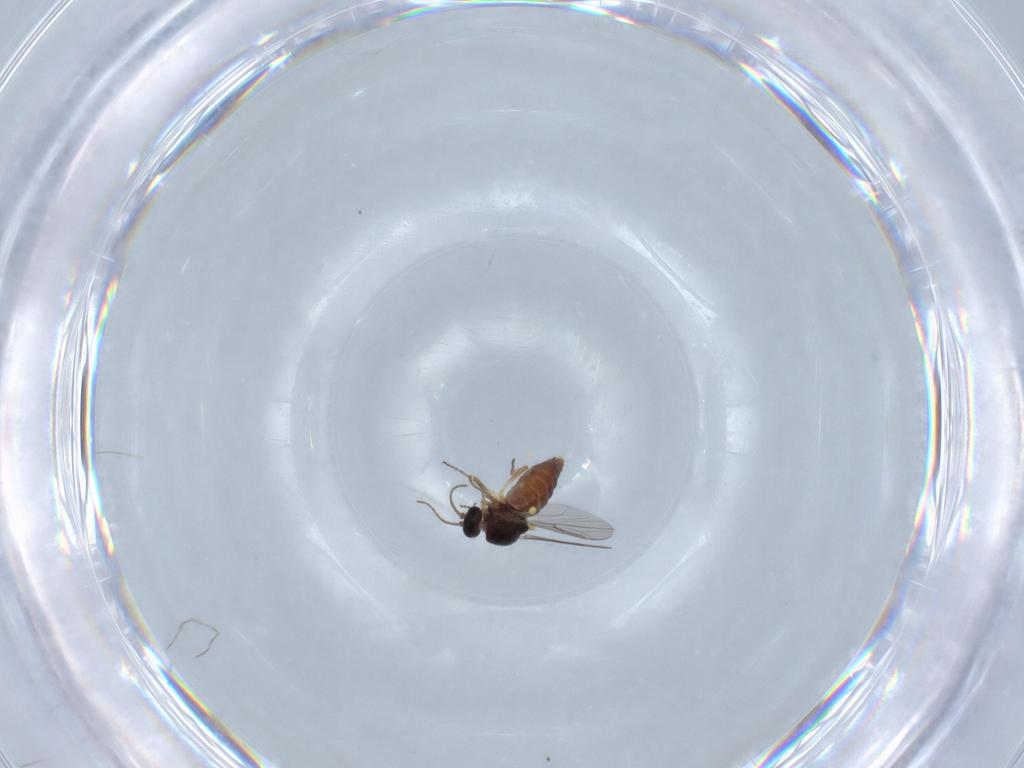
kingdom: Animalia
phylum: Arthropoda
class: Insecta
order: Diptera
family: Ceratopogonidae
